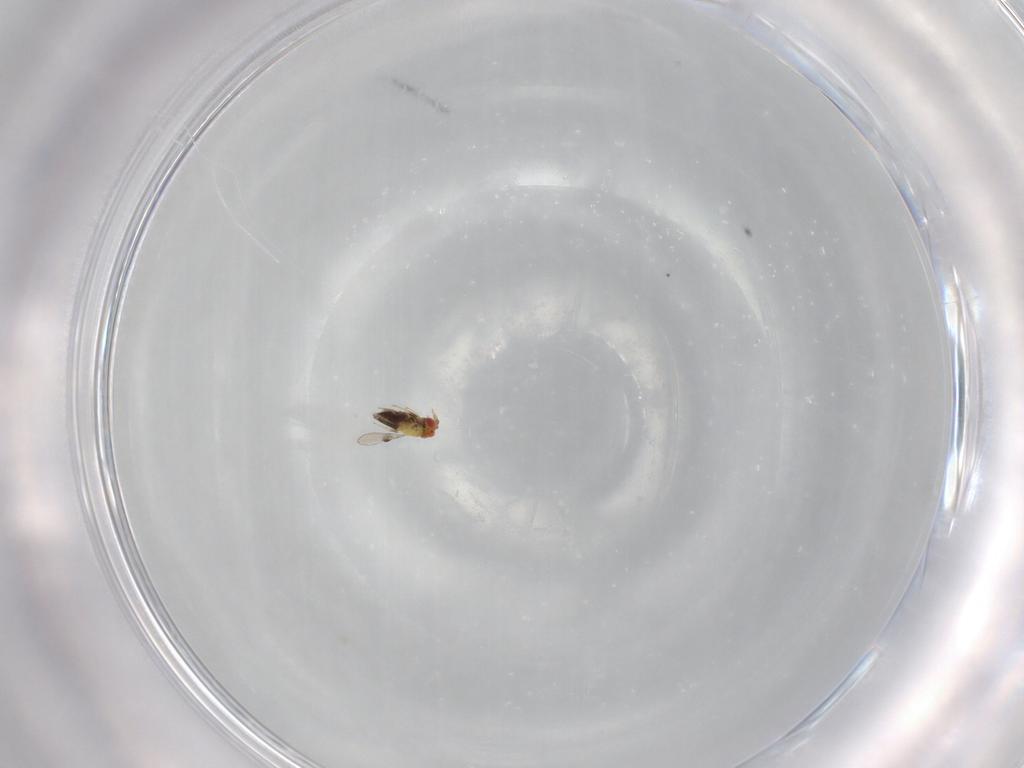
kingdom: Animalia
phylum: Arthropoda
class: Insecta
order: Hymenoptera
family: Bethylidae
